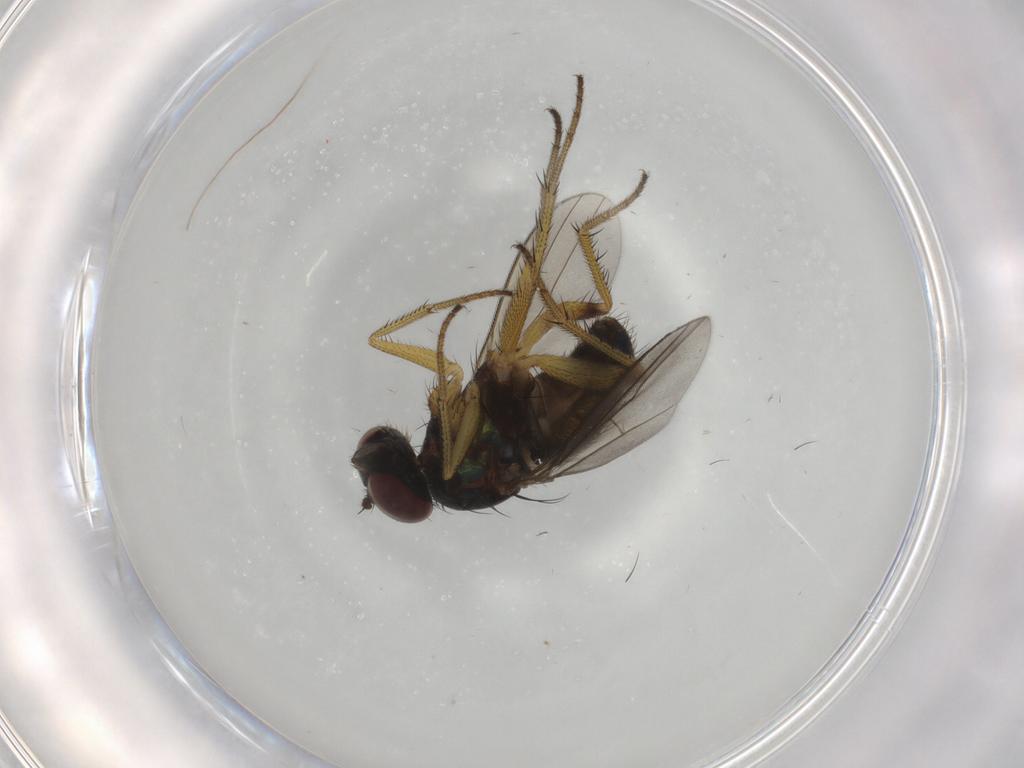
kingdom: Animalia
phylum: Arthropoda
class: Insecta
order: Diptera
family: Dolichopodidae
